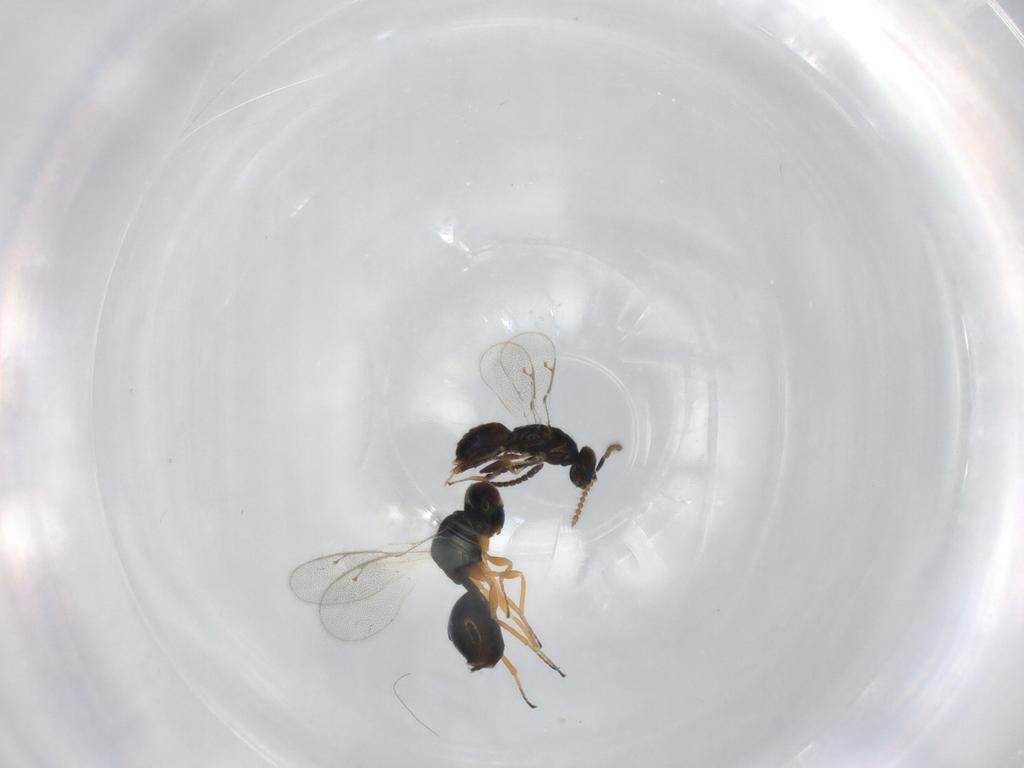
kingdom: Animalia
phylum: Arthropoda
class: Insecta
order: Hymenoptera
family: Pteromalidae
